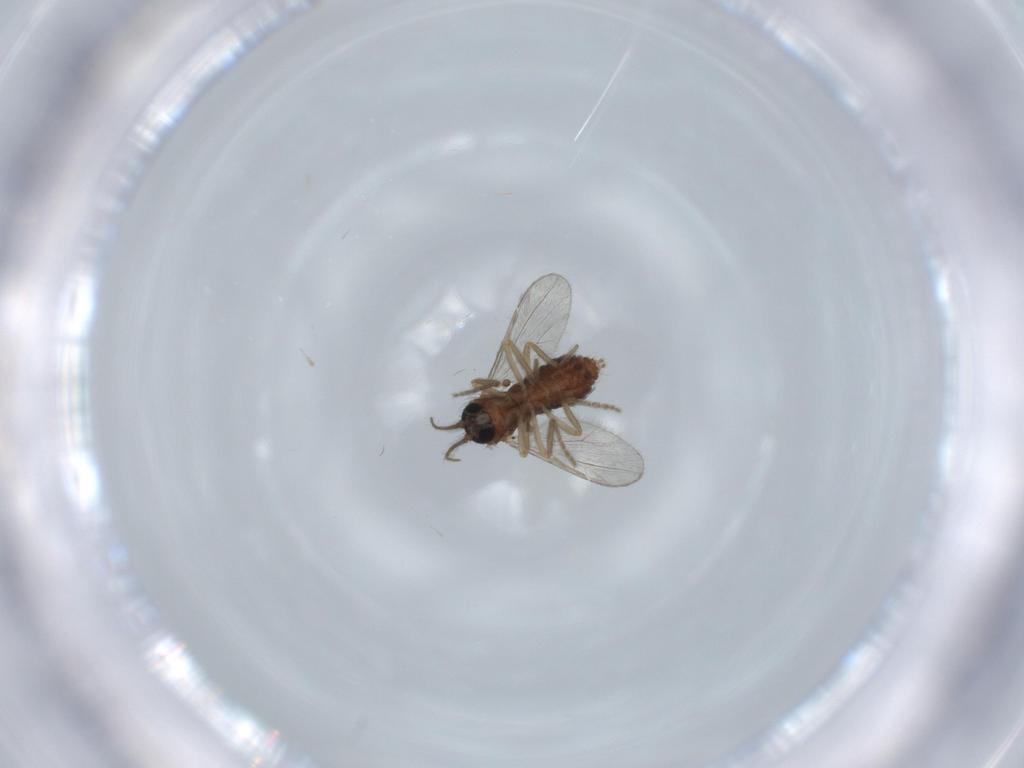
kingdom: Animalia
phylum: Arthropoda
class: Insecta
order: Diptera
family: Ceratopogonidae
